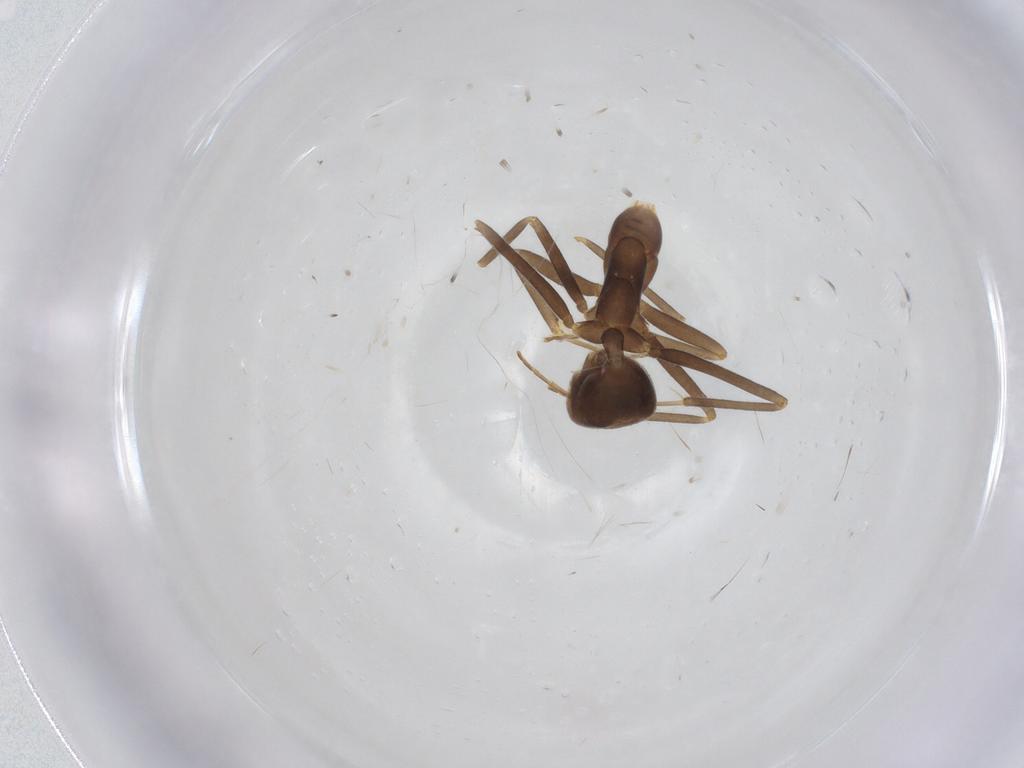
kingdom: Animalia
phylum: Arthropoda
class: Insecta
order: Hymenoptera
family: Formicidae
